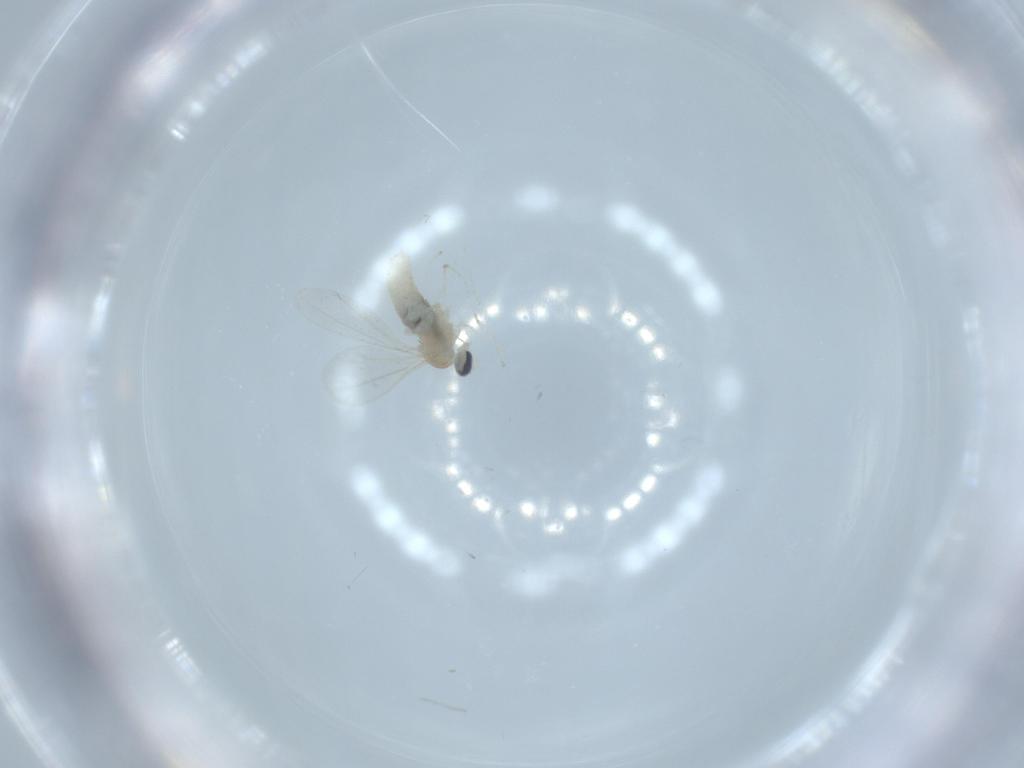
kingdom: Animalia
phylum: Arthropoda
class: Insecta
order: Diptera
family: Cecidomyiidae
